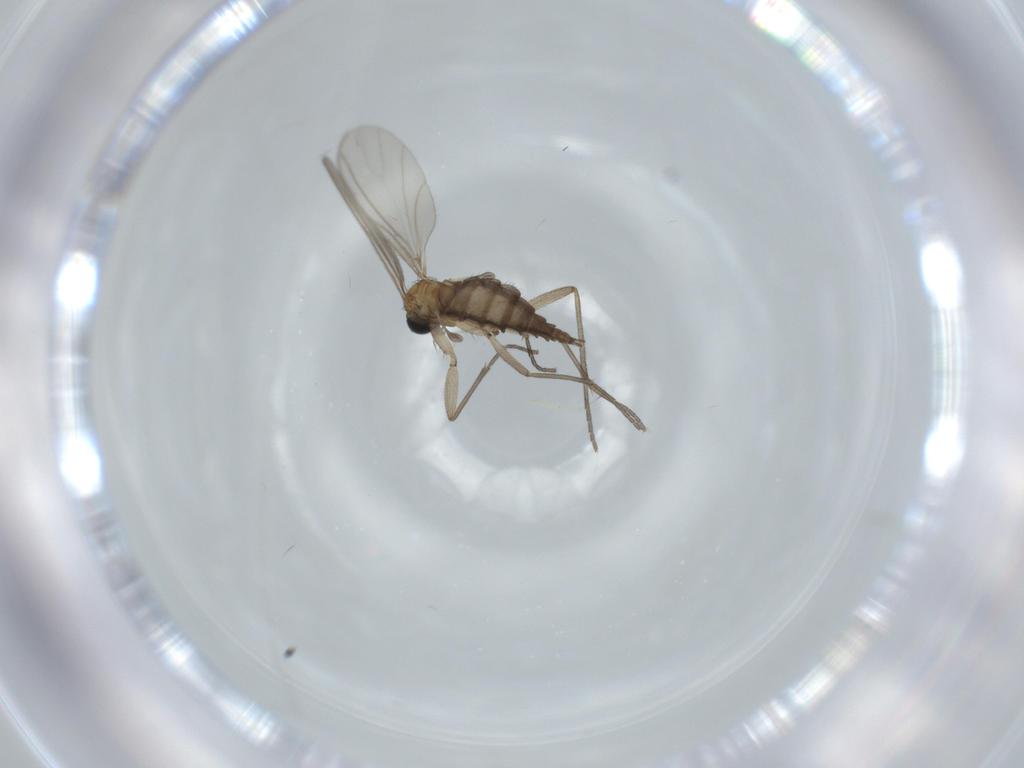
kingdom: Animalia
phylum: Arthropoda
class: Insecta
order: Diptera
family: Sciaridae
